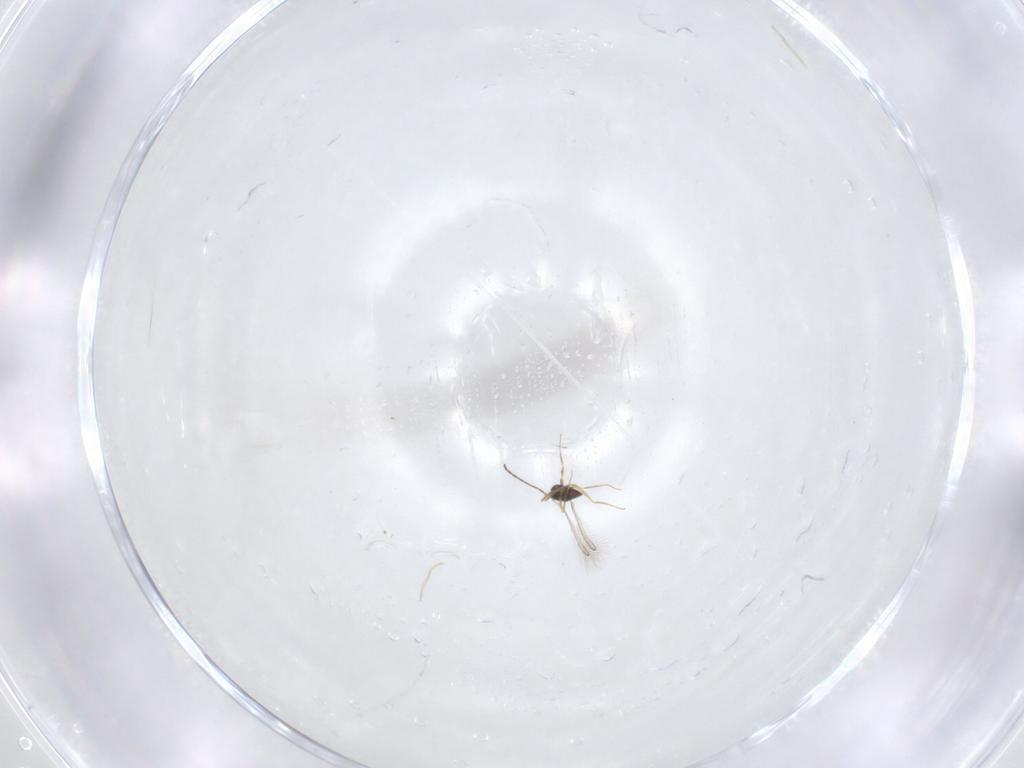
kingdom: Animalia
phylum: Arthropoda
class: Insecta
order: Hymenoptera
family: Mymaridae
